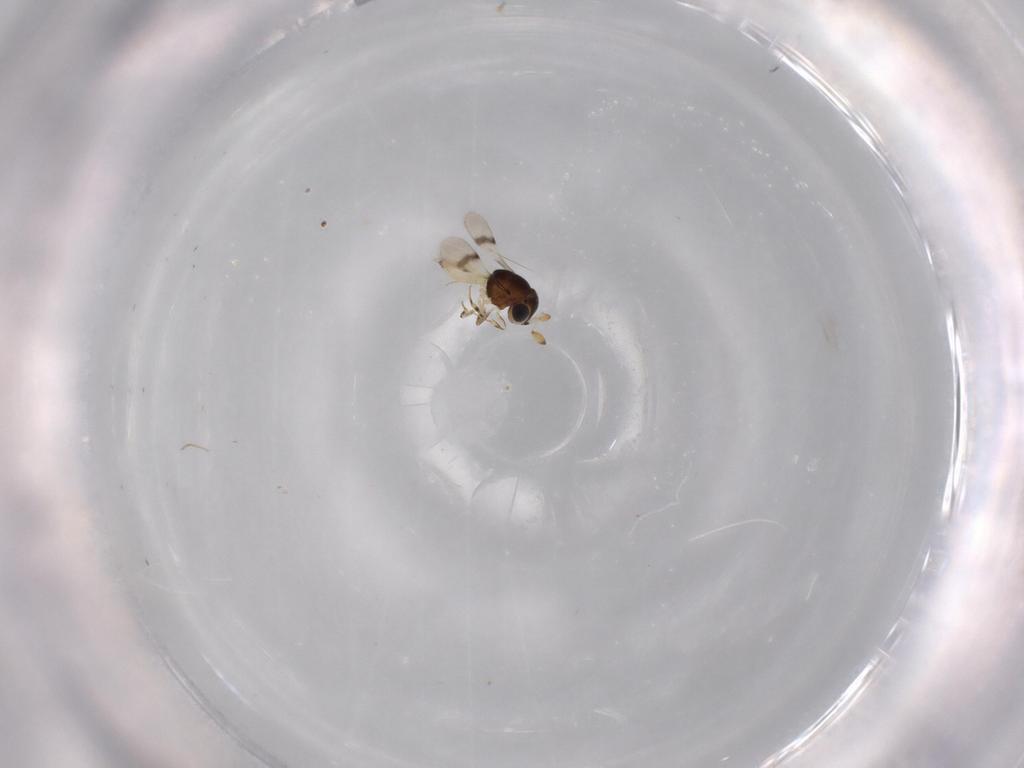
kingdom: Animalia
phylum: Arthropoda
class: Insecta
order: Hymenoptera
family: Scelionidae
